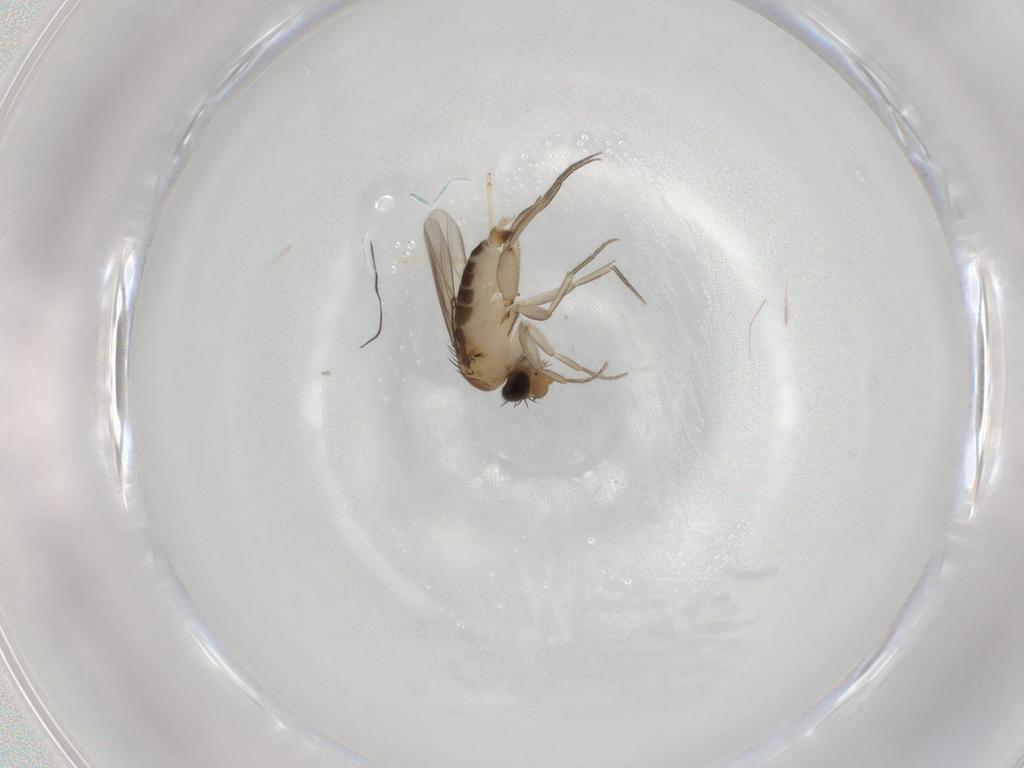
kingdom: Animalia
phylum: Arthropoda
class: Insecta
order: Diptera
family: Phoridae
